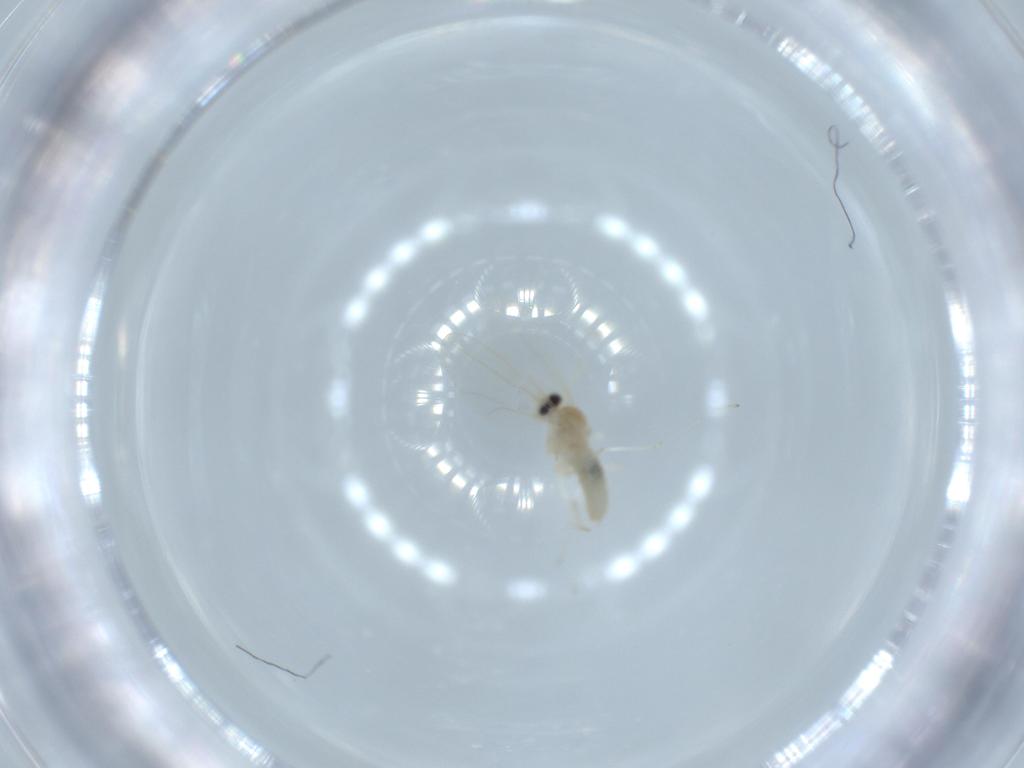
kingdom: Animalia
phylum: Arthropoda
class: Insecta
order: Diptera
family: Cecidomyiidae
